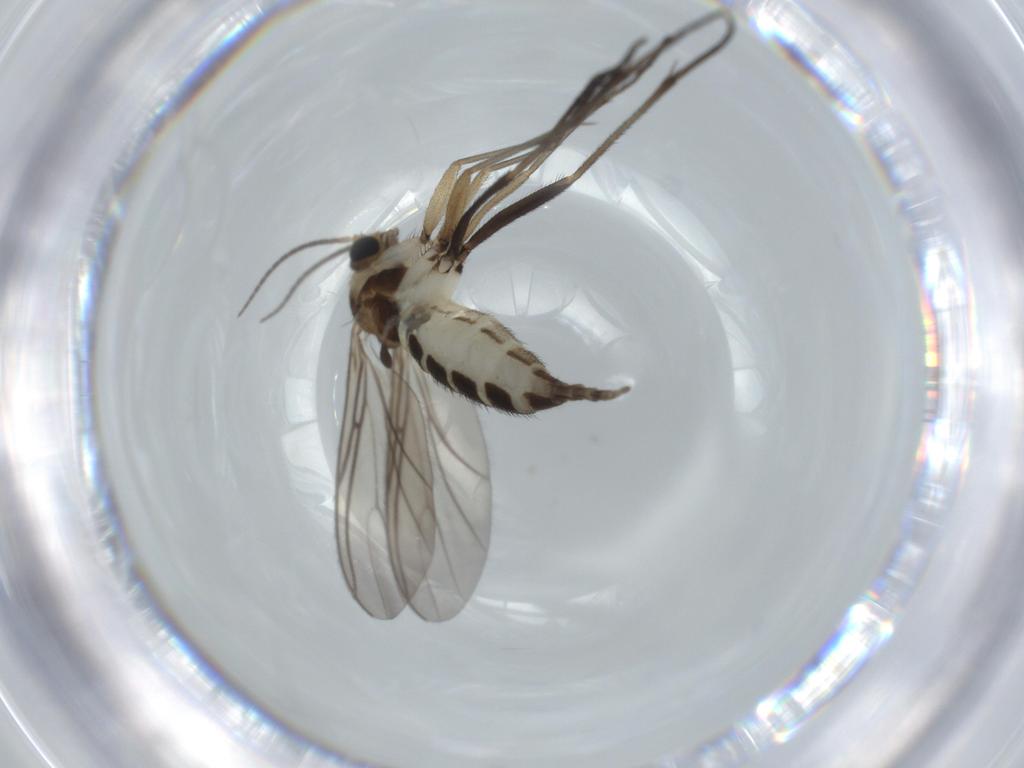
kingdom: Animalia
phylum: Arthropoda
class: Insecta
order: Diptera
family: Sciaridae
